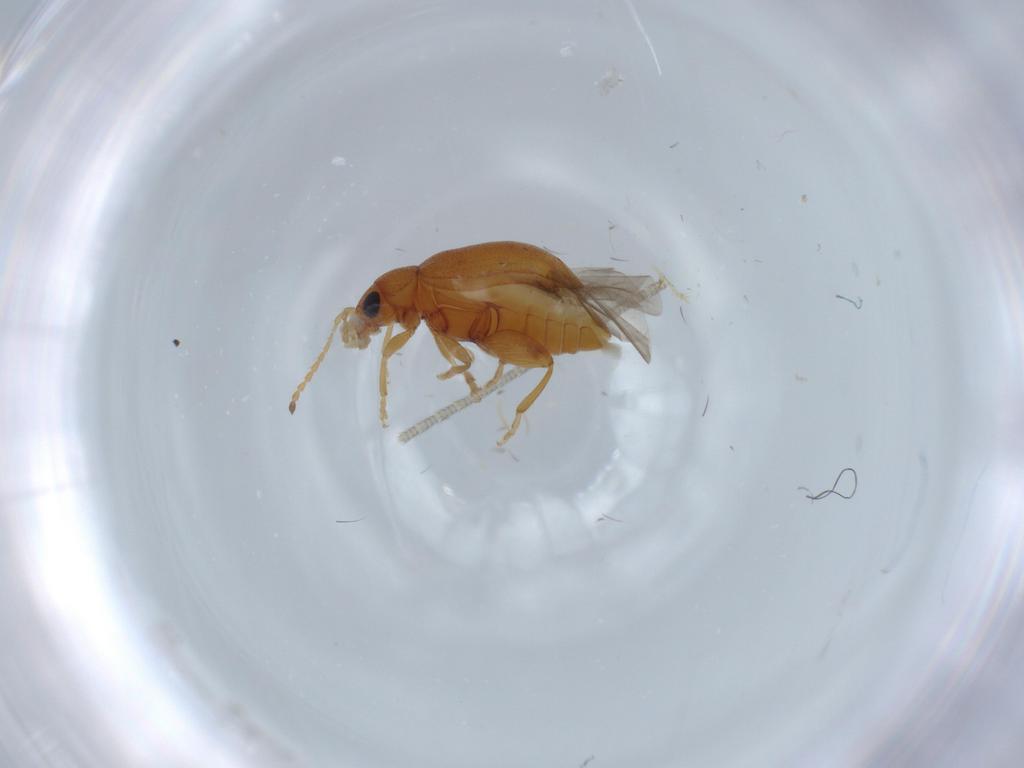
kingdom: Animalia
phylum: Arthropoda
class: Insecta
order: Coleoptera
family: Chrysomelidae
